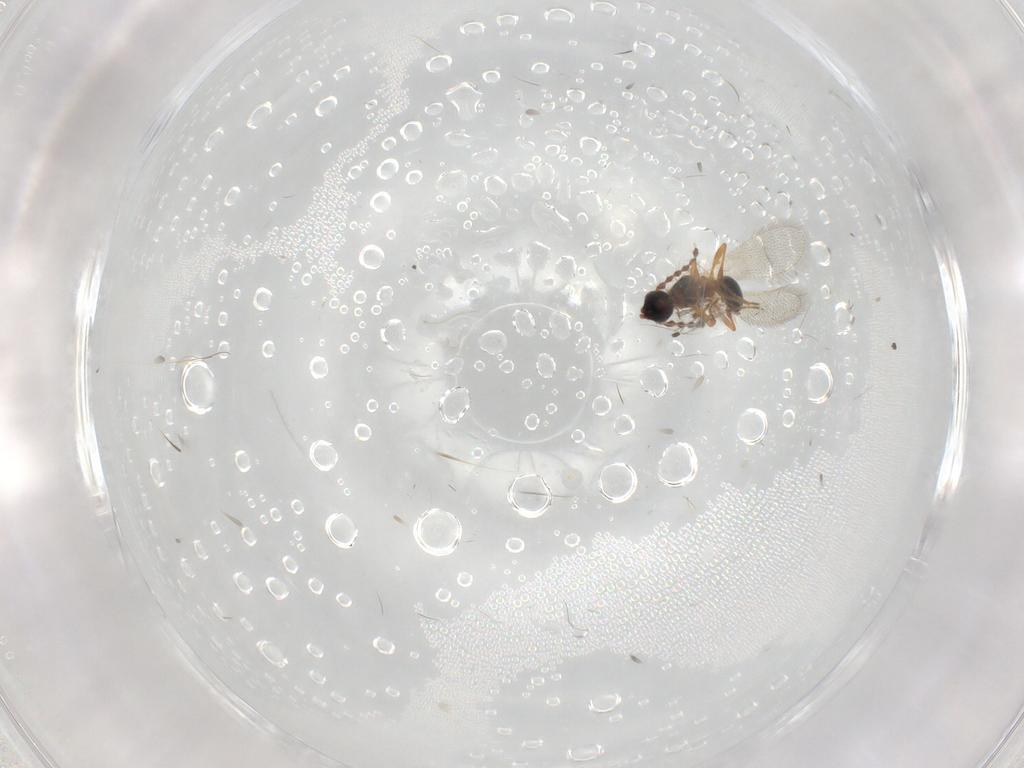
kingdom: Animalia
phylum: Arthropoda
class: Insecta
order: Hymenoptera
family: Diapriidae
